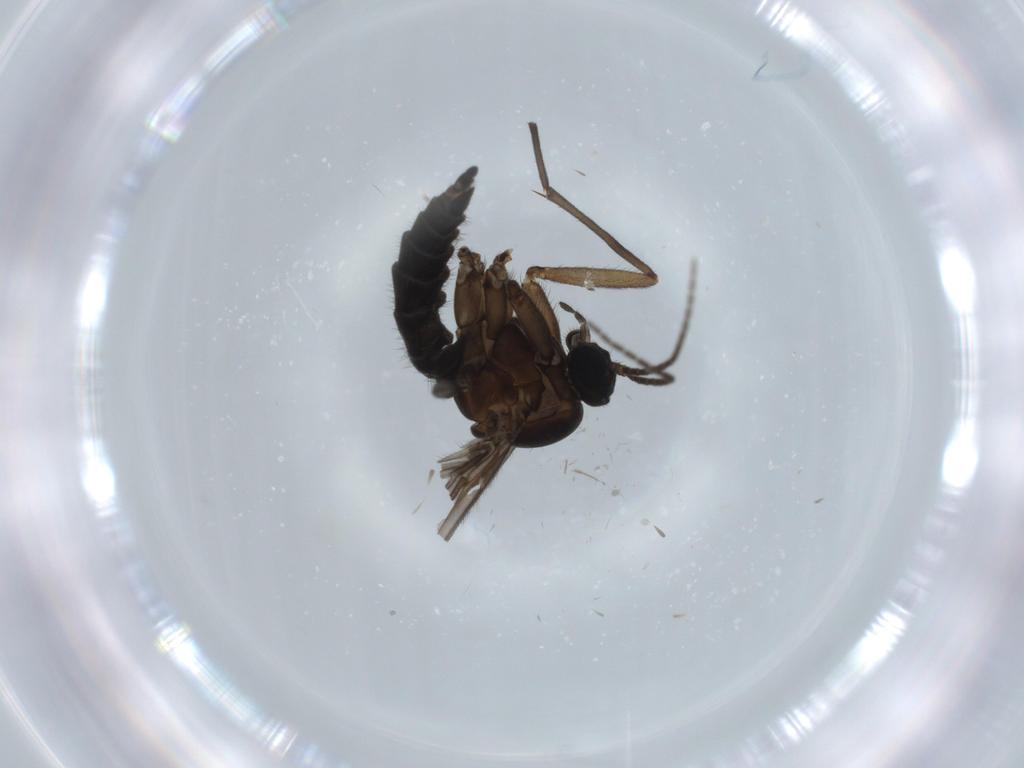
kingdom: Animalia
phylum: Arthropoda
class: Insecta
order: Diptera
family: Sciaridae
